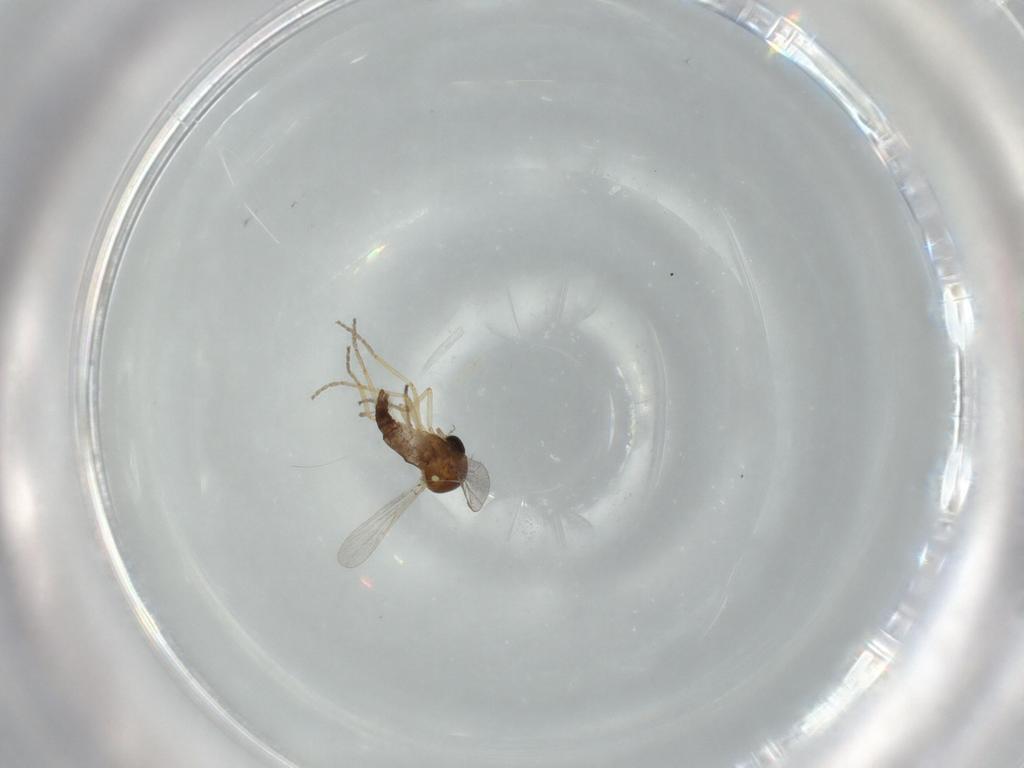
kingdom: Animalia
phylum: Arthropoda
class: Insecta
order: Diptera
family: Ceratopogonidae
